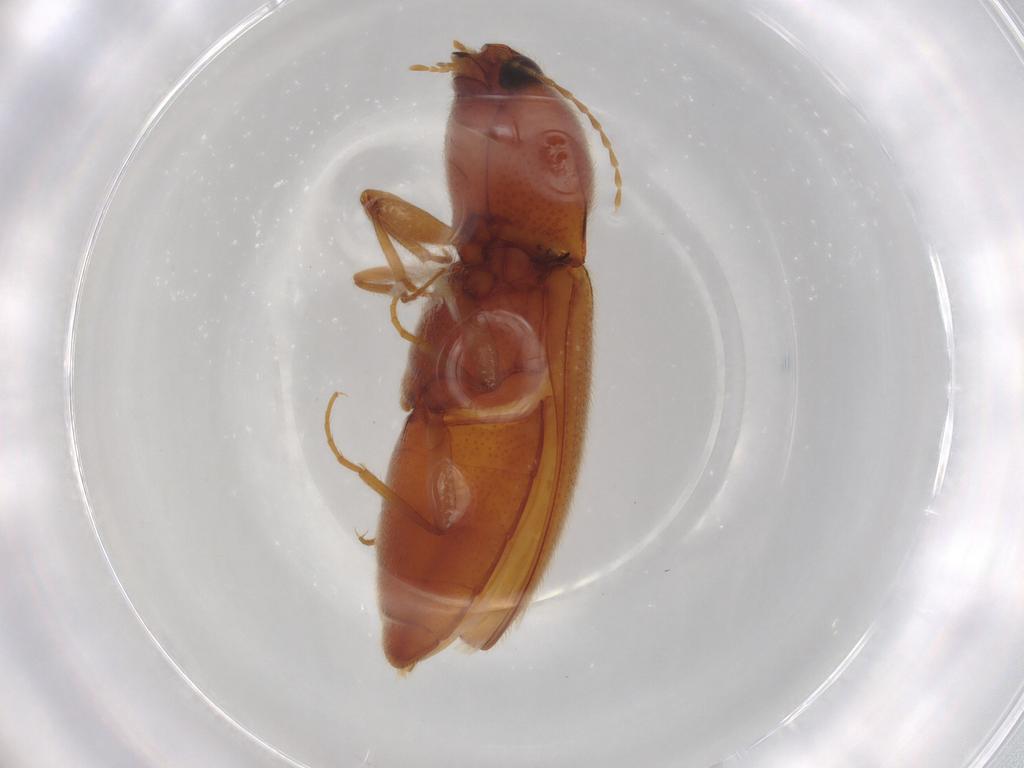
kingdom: Animalia
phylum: Arthropoda
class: Insecta
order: Coleoptera
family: Elateridae
